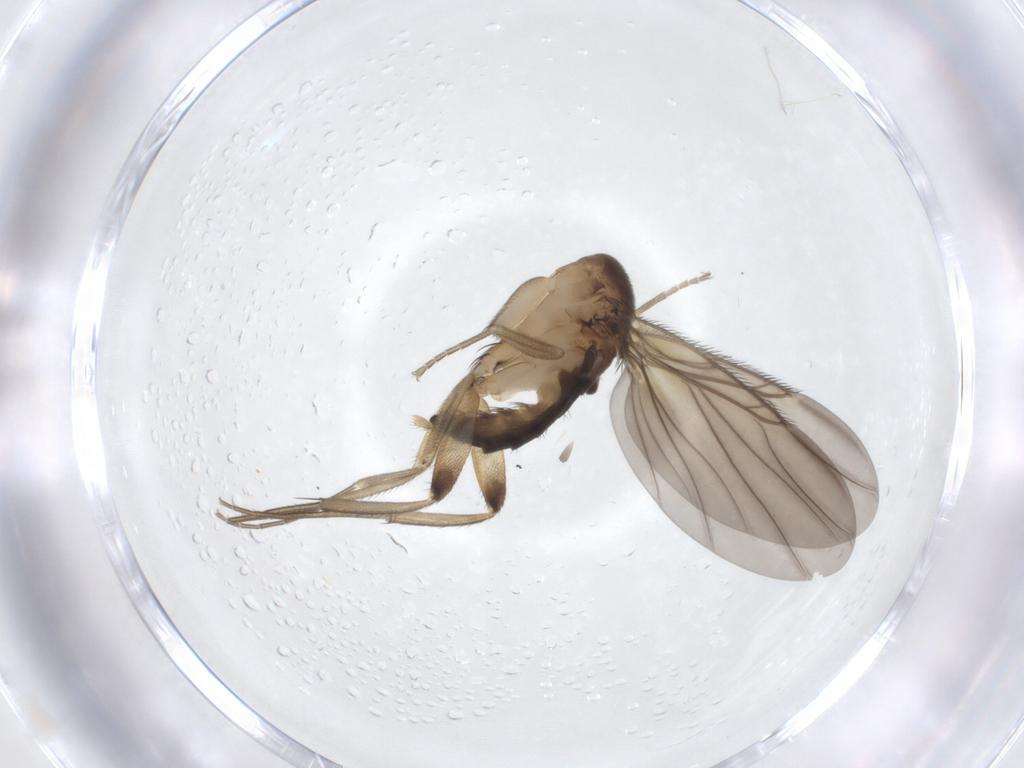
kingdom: Animalia
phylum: Arthropoda
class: Insecta
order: Diptera
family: Phoridae
